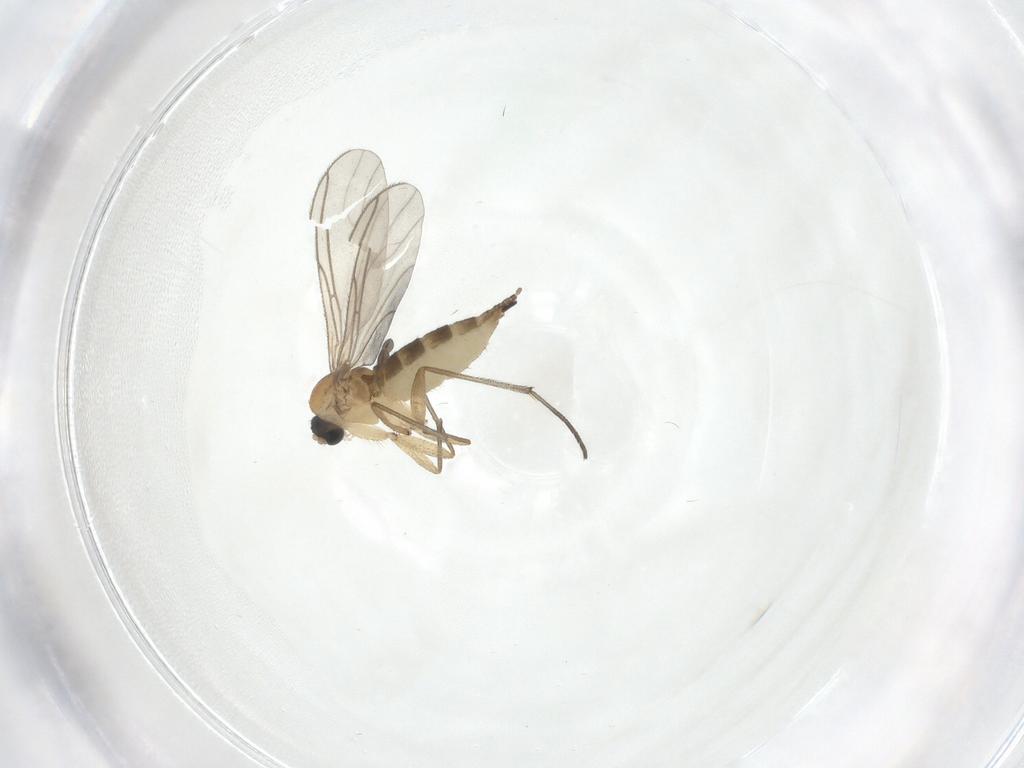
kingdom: Animalia
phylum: Arthropoda
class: Insecta
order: Diptera
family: Sciaridae
